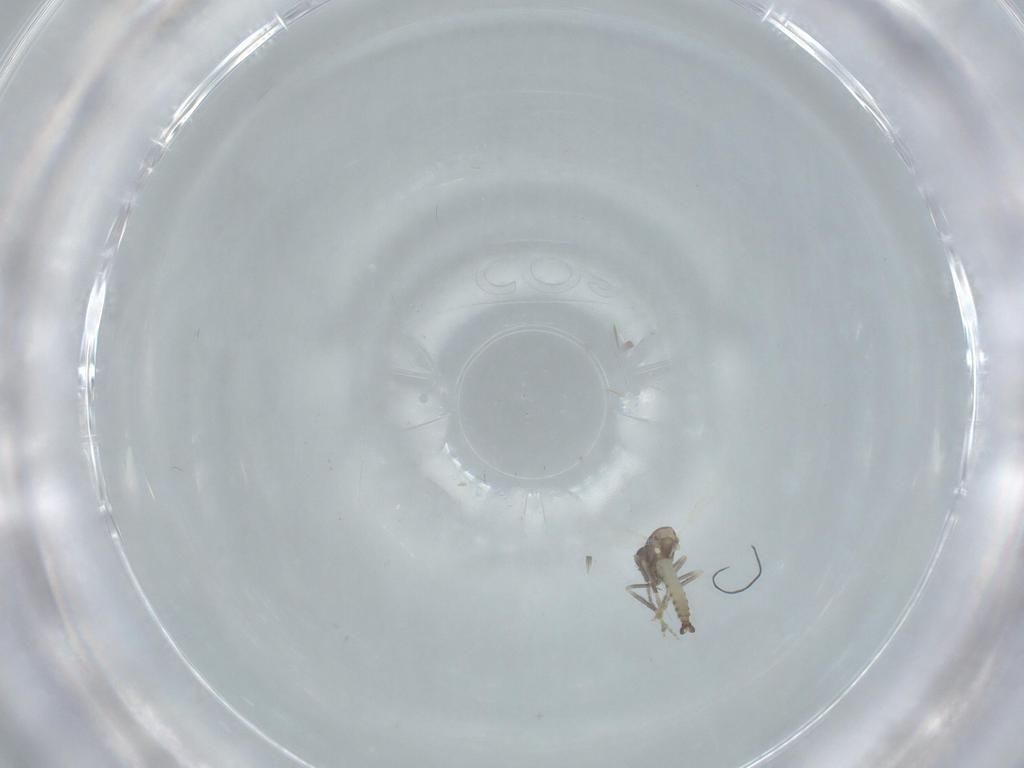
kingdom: Animalia
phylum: Arthropoda
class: Insecta
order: Diptera
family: Ceratopogonidae
